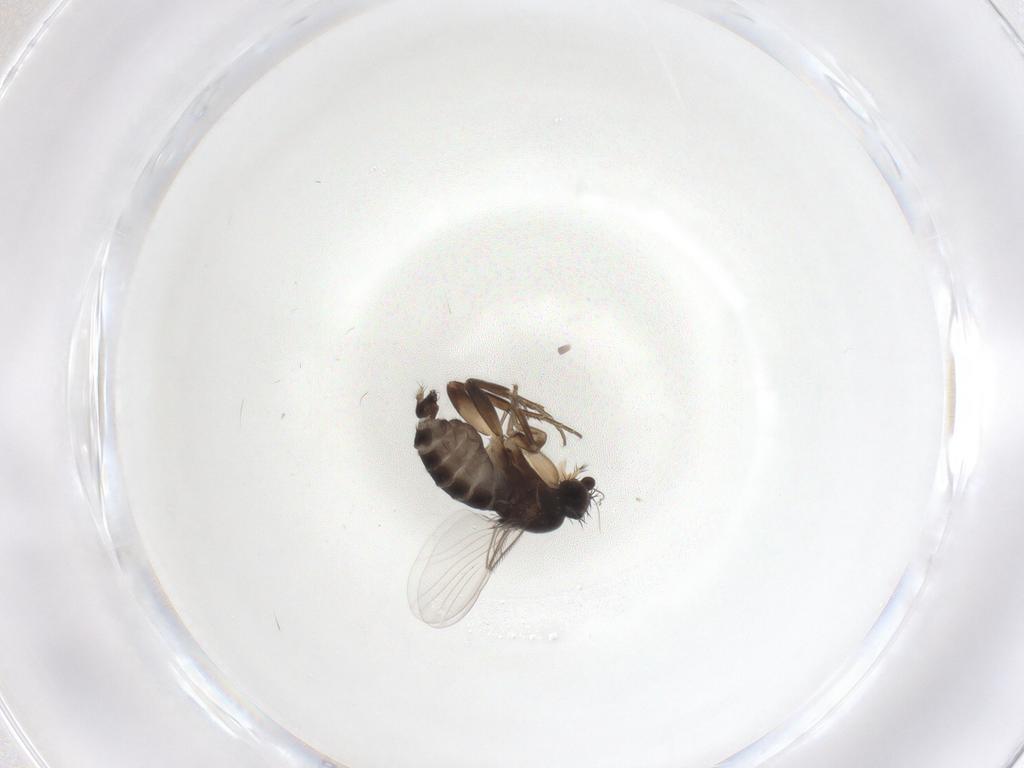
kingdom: Animalia
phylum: Arthropoda
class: Insecta
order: Diptera
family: Phoridae
